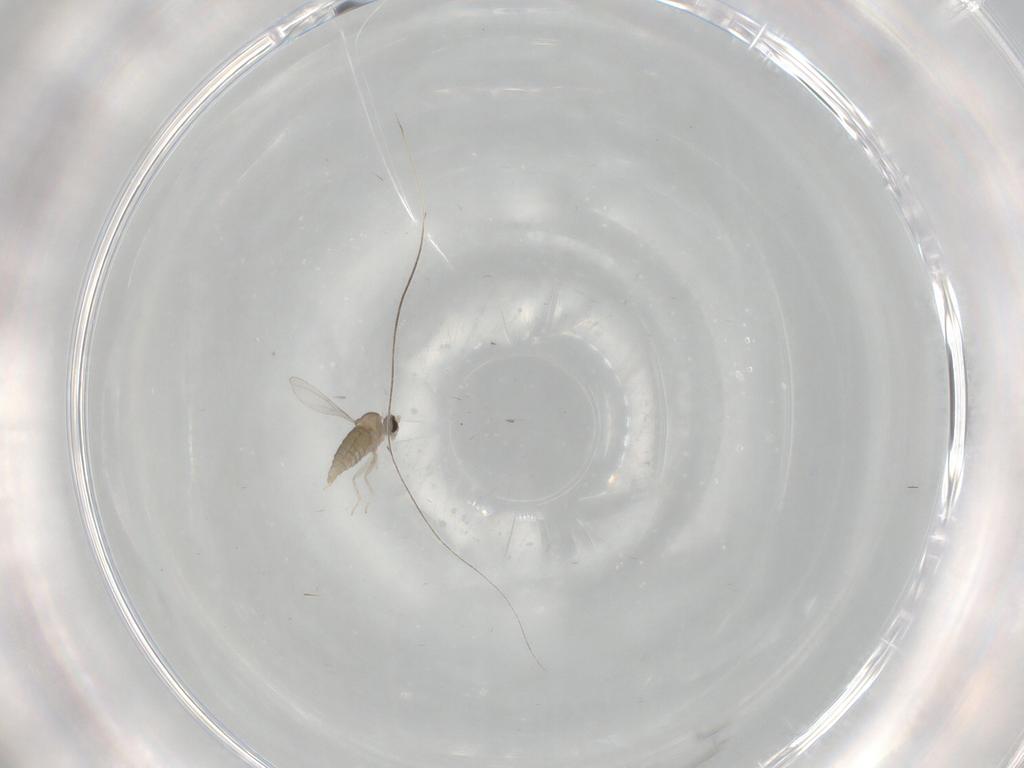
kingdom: Animalia
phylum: Arthropoda
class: Insecta
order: Diptera
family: Cecidomyiidae
